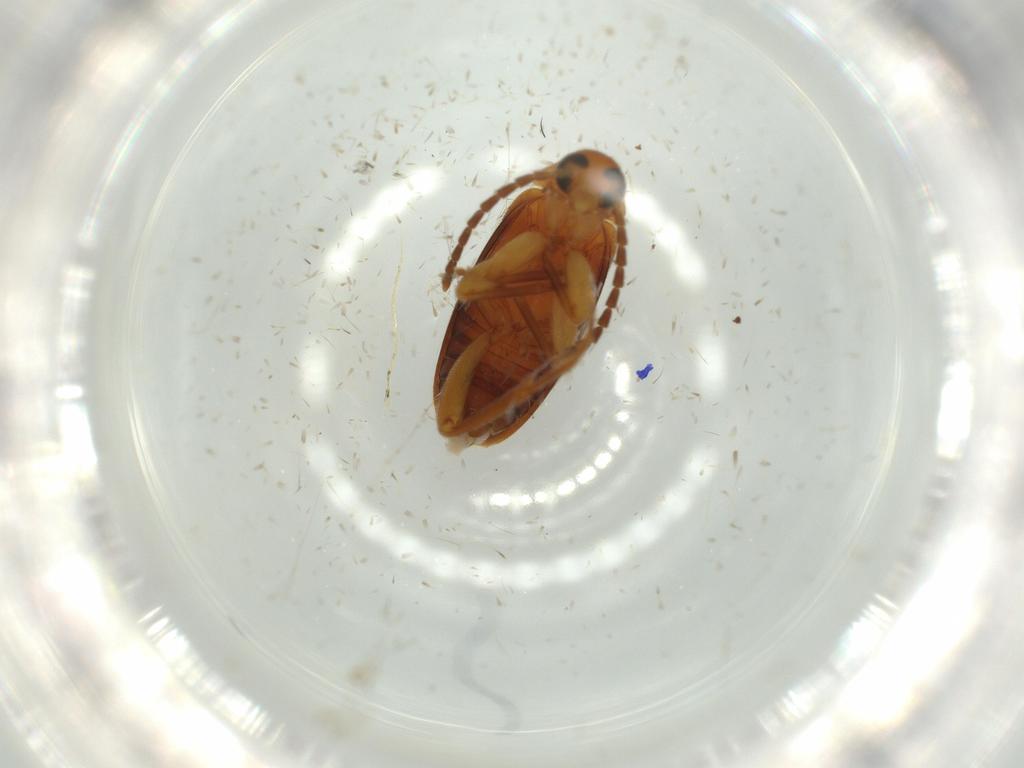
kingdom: Animalia
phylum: Arthropoda
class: Insecta
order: Coleoptera
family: Scraptiidae
